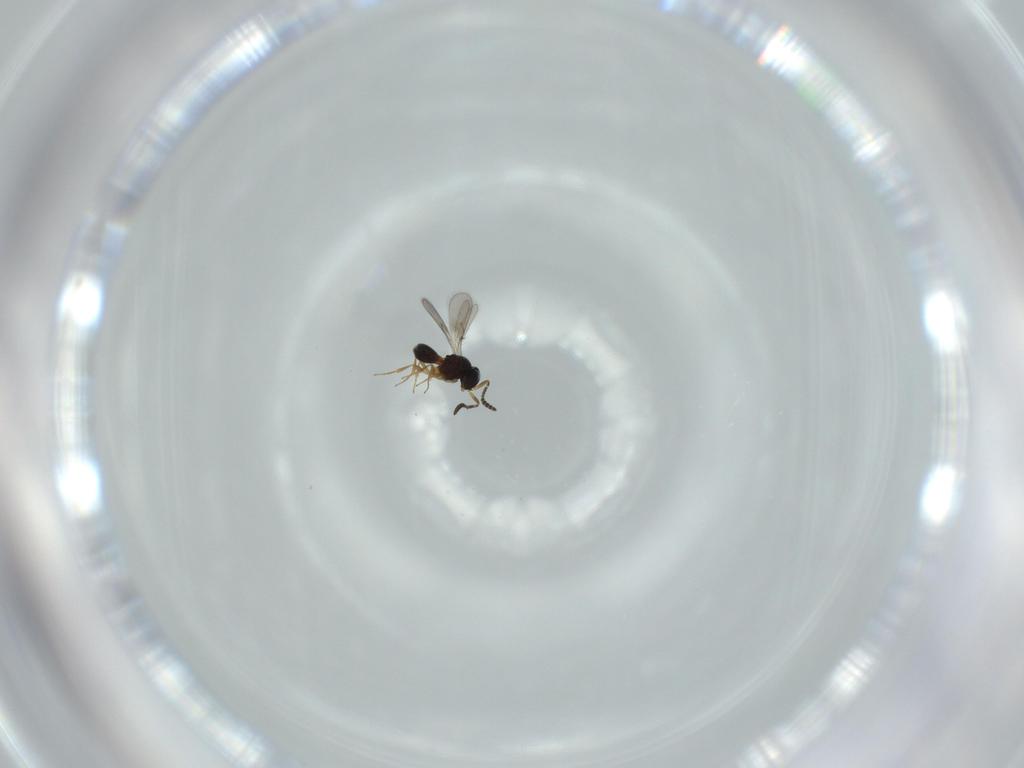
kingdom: Animalia
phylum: Arthropoda
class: Insecta
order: Hymenoptera
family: Scelionidae
